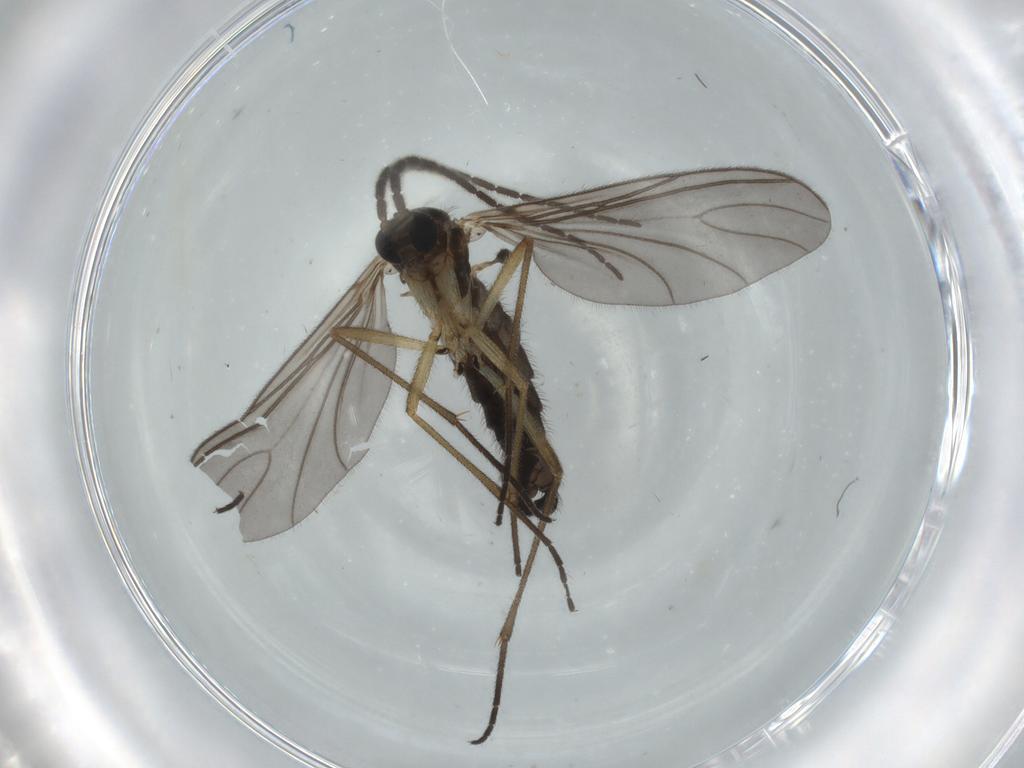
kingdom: Animalia
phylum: Arthropoda
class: Insecta
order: Diptera
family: Sciaridae
